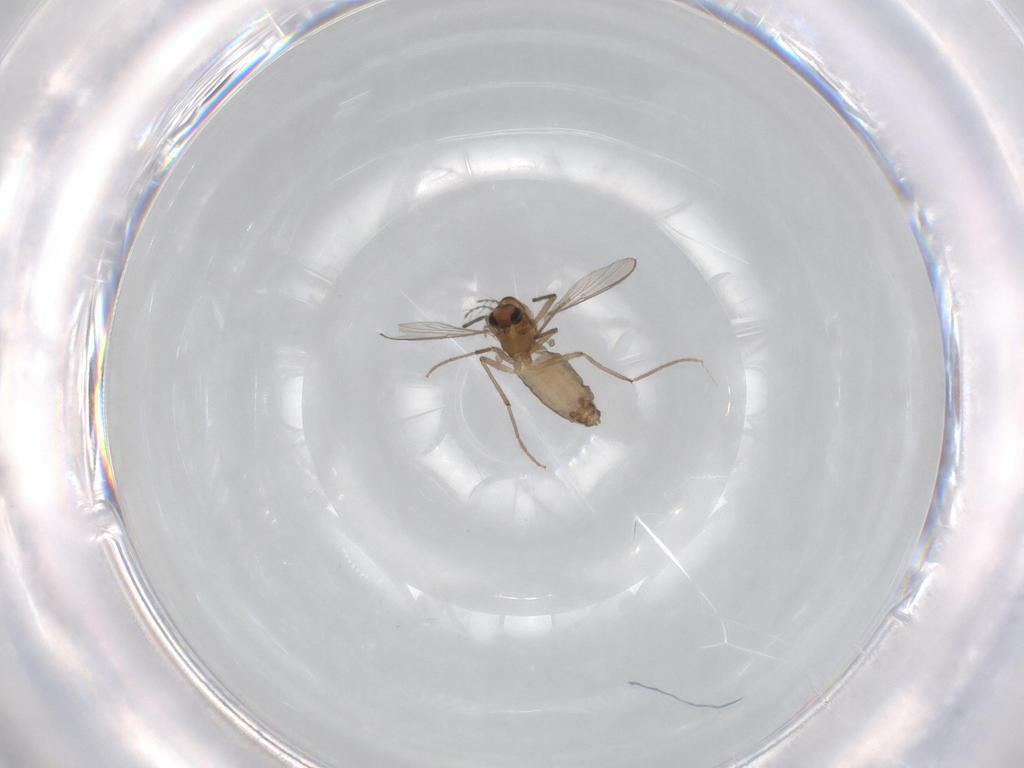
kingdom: Animalia
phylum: Arthropoda
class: Insecta
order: Diptera
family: Chironomidae
